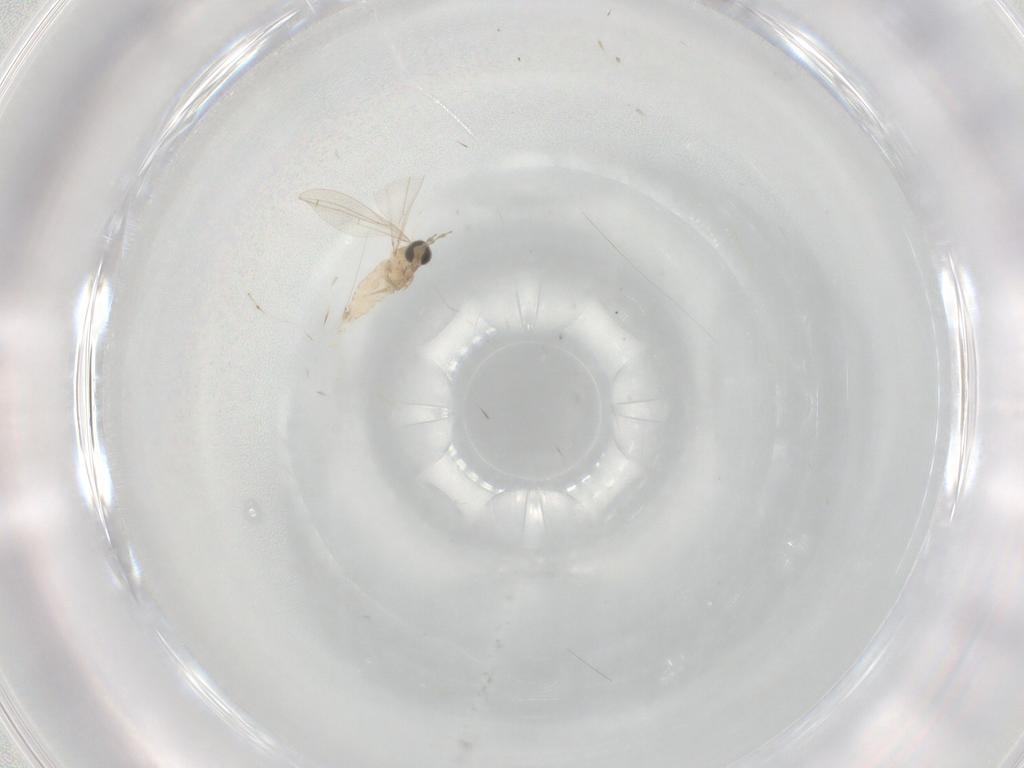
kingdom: Animalia
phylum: Arthropoda
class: Insecta
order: Diptera
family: Cecidomyiidae
